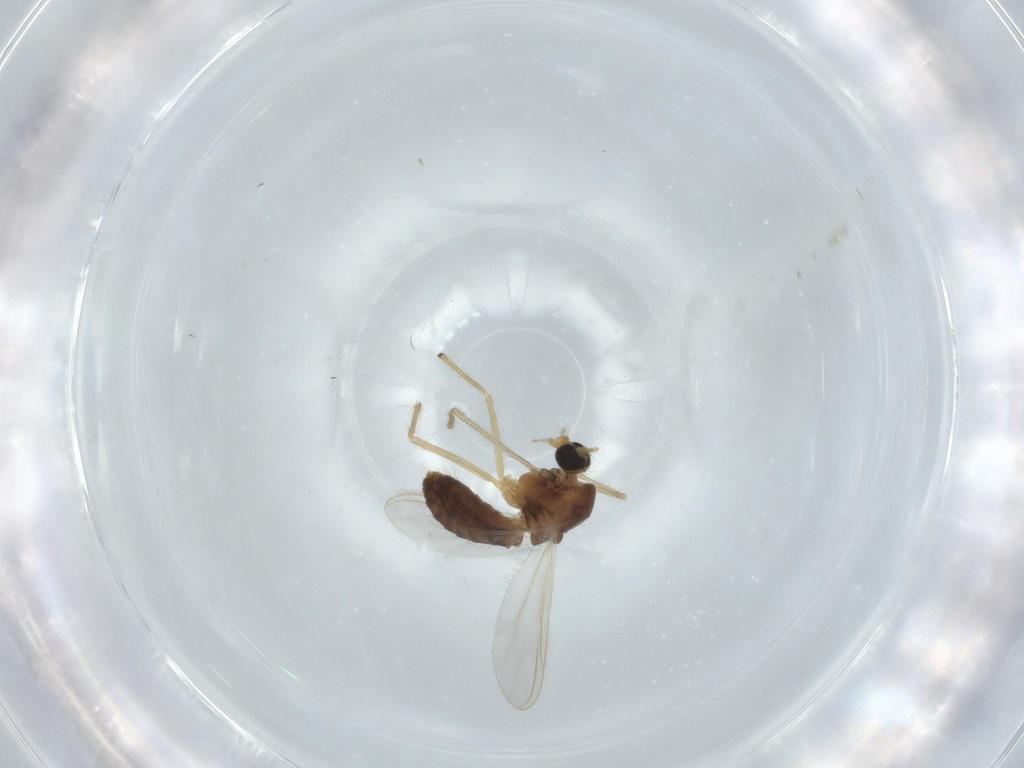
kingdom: Animalia
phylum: Arthropoda
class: Insecta
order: Diptera
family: Chironomidae
